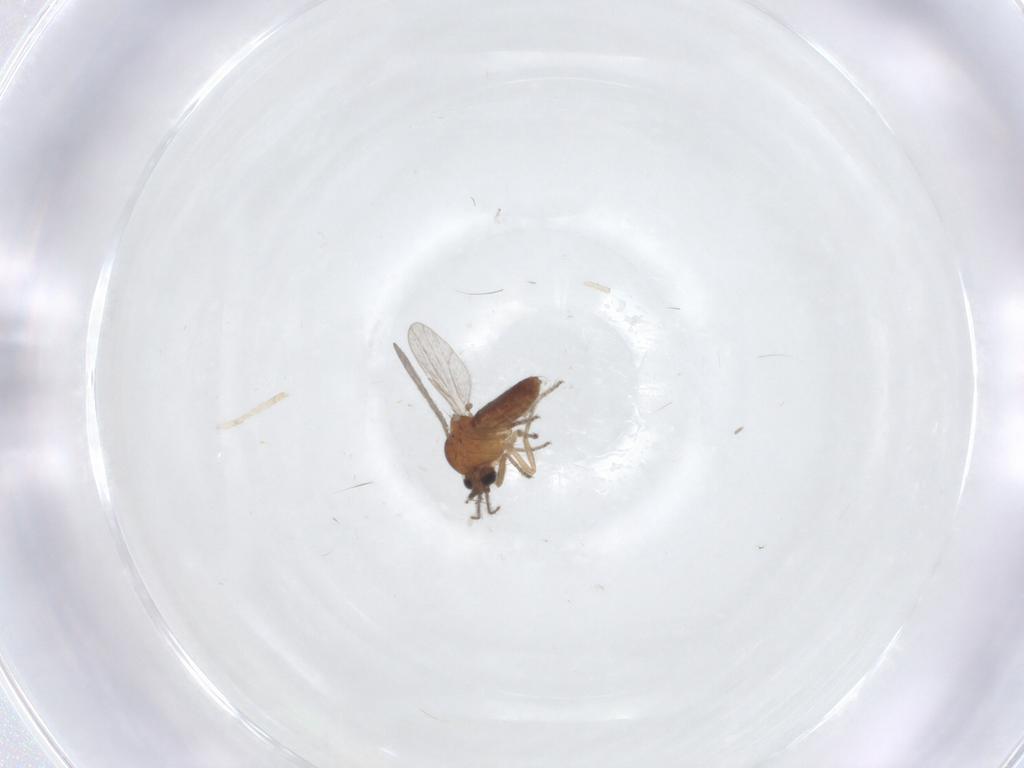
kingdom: Animalia
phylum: Arthropoda
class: Insecta
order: Diptera
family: Ceratopogonidae
